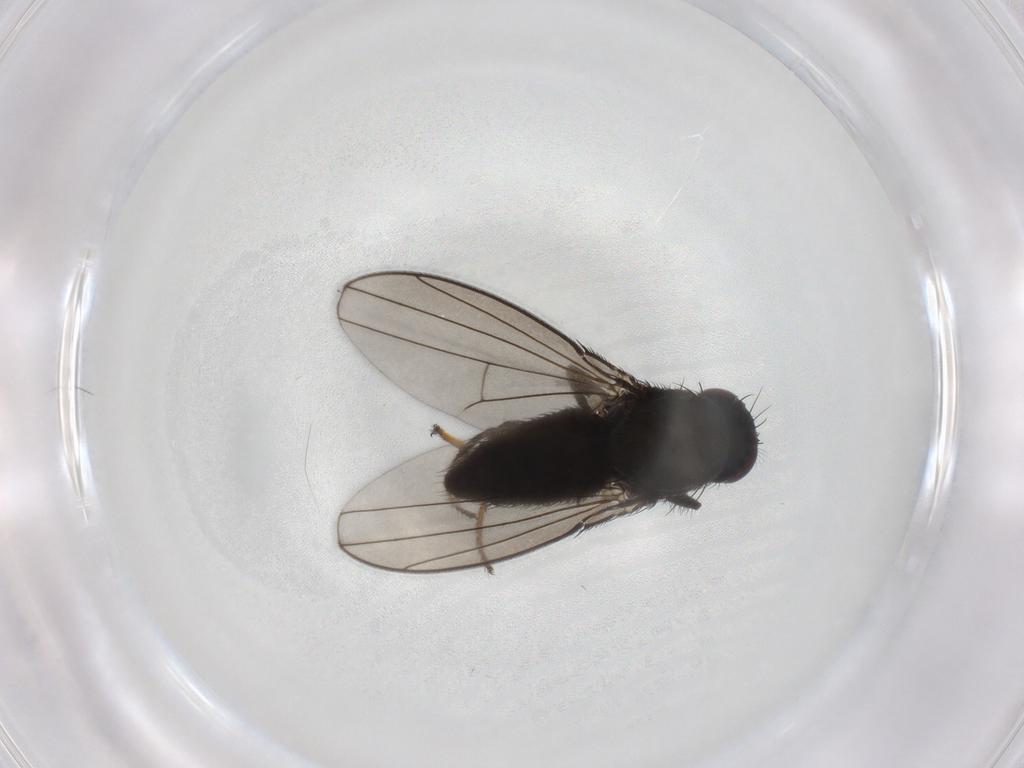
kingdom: Animalia
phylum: Arthropoda
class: Insecta
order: Diptera
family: Ephydridae
